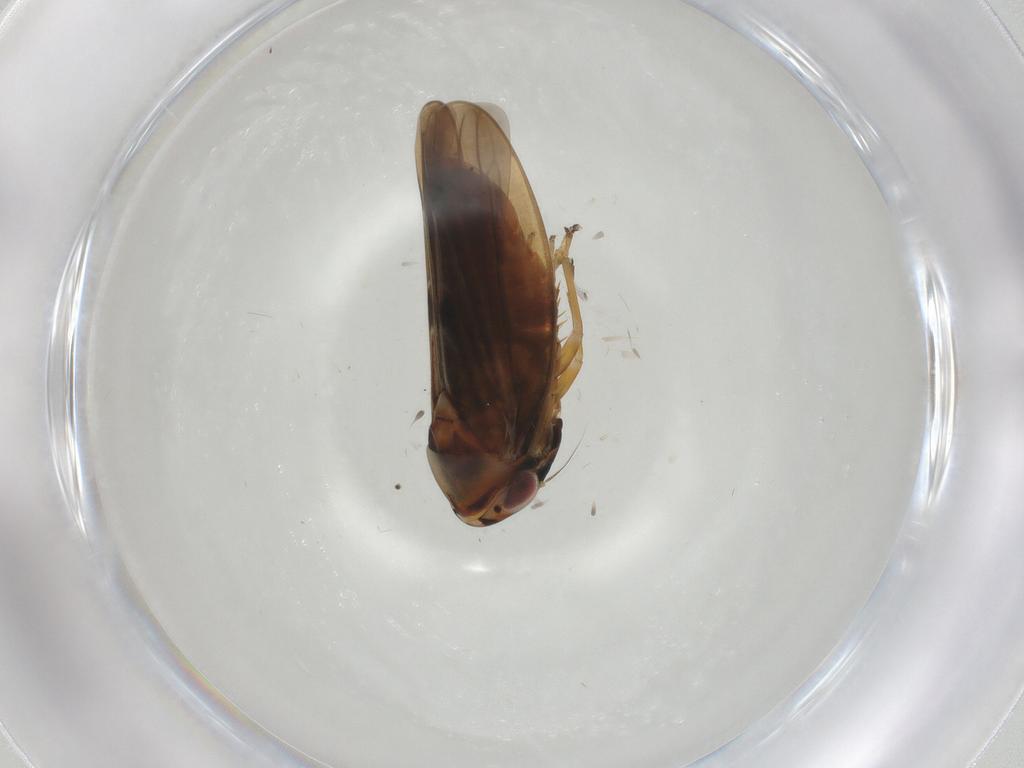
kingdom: Animalia
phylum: Arthropoda
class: Insecta
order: Hemiptera
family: Cicadellidae
